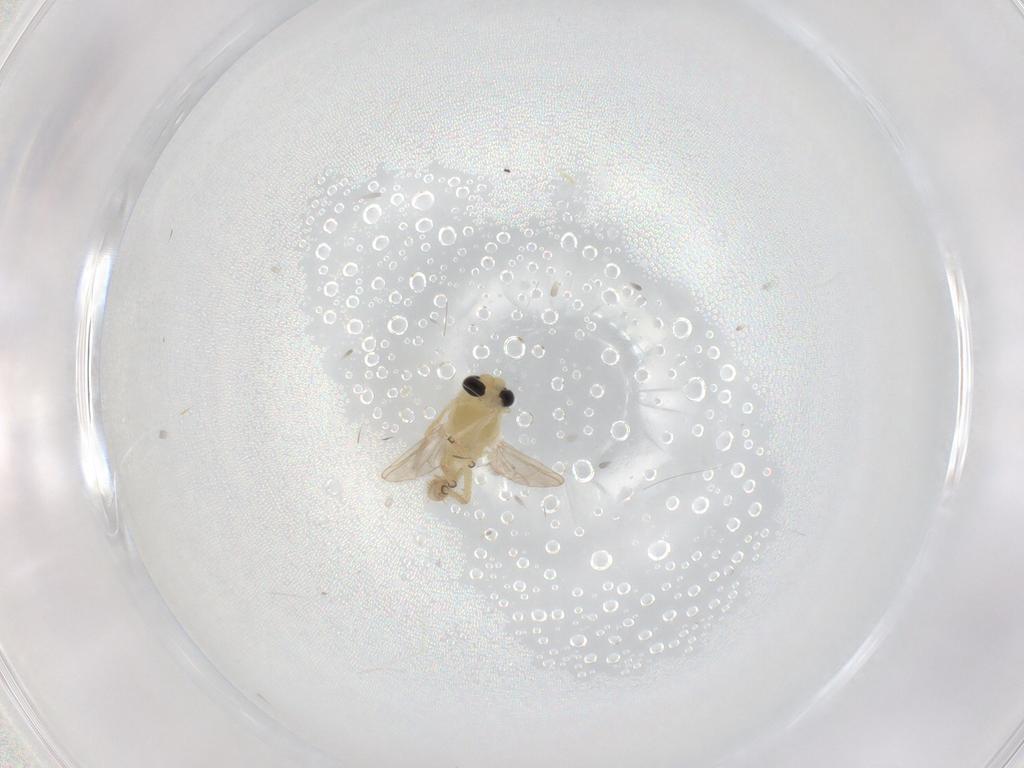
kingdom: Animalia
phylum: Arthropoda
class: Insecta
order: Diptera
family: Chironomidae
